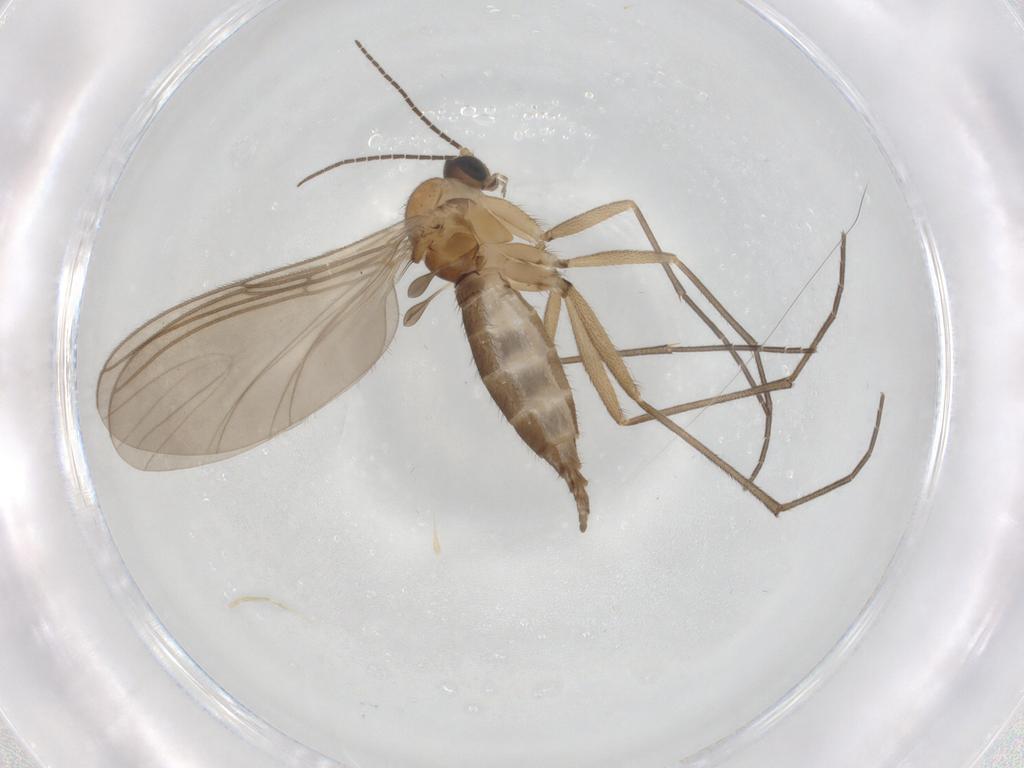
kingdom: Animalia
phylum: Arthropoda
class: Insecta
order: Diptera
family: Sciaridae
